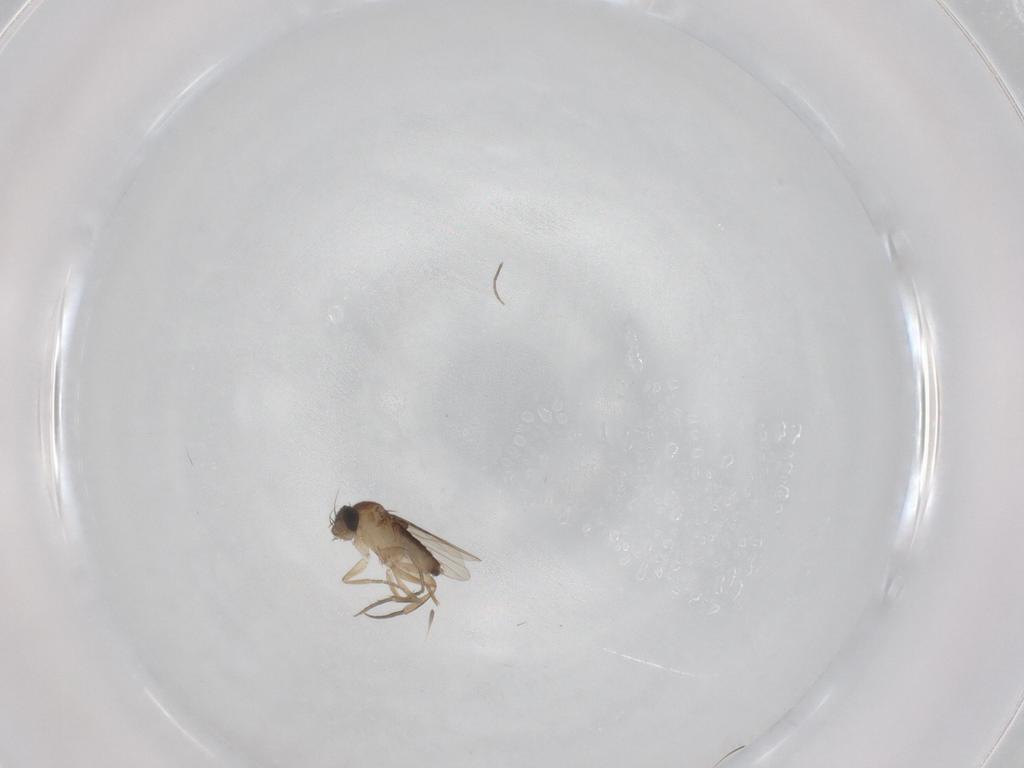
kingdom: Animalia
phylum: Arthropoda
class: Insecta
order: Diptera
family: Phoridae
